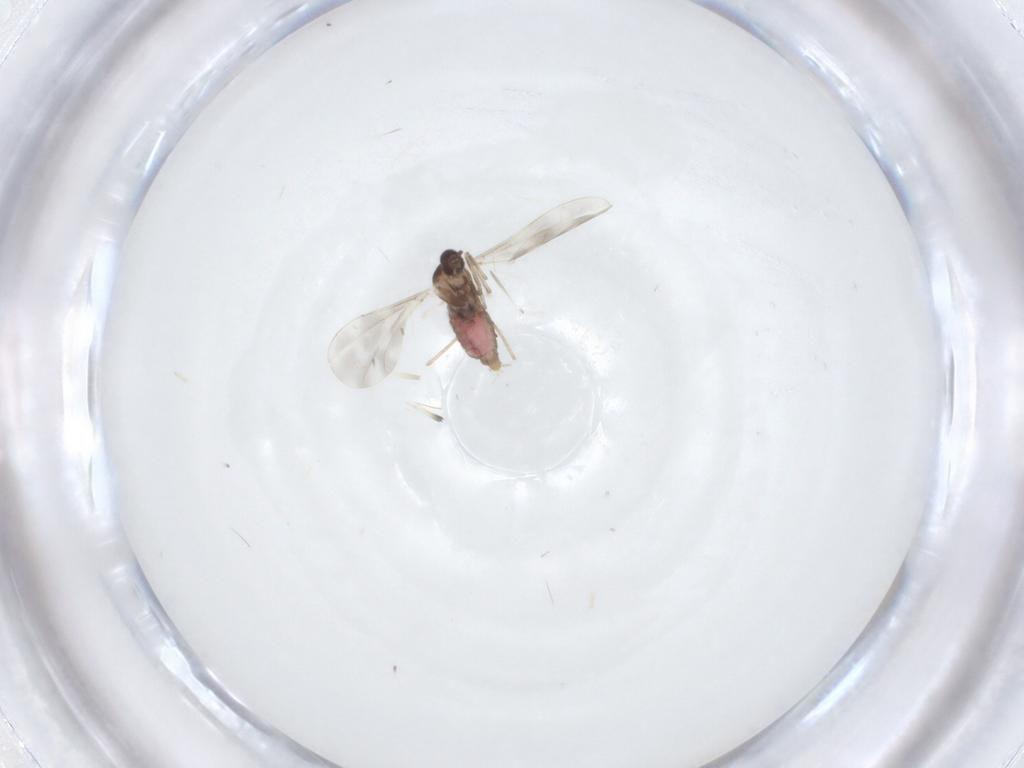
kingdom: Animalia
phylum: Arthropoda
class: Insecta
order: Diptera
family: Cecidomyiidae
